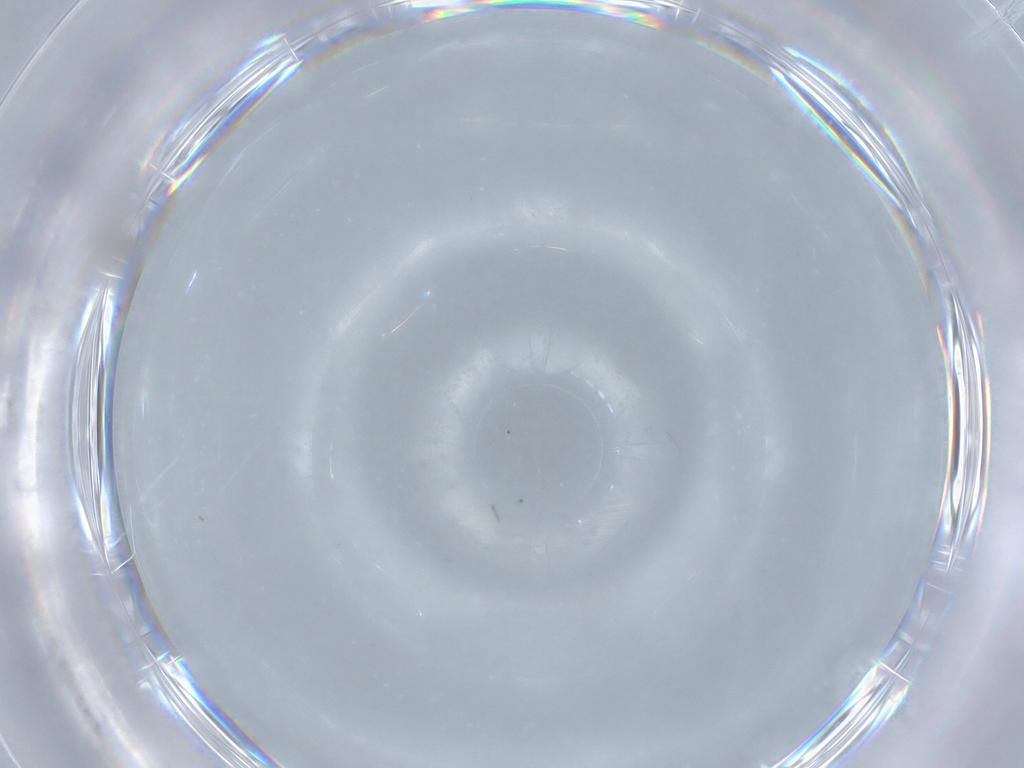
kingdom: Animalia
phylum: Arthropoda
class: Insecta
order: Diptera
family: Cecidomyiidae
